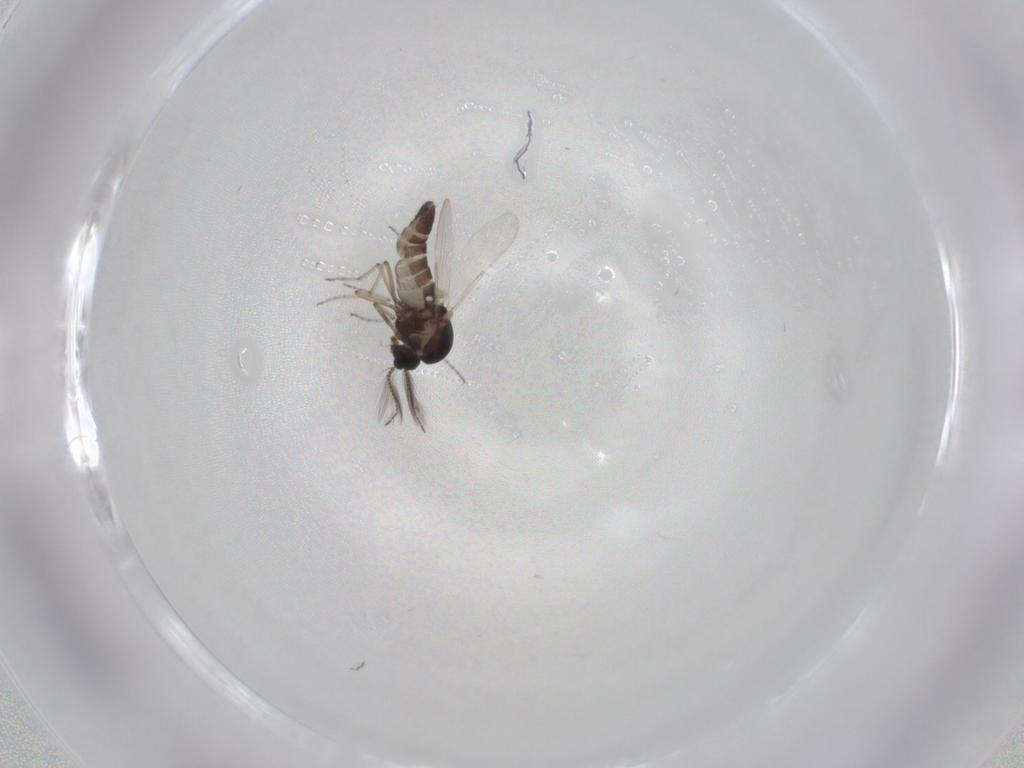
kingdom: Animalia
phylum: Arthropoda
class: Insecta
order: Diptera
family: Ceratopogonidae
